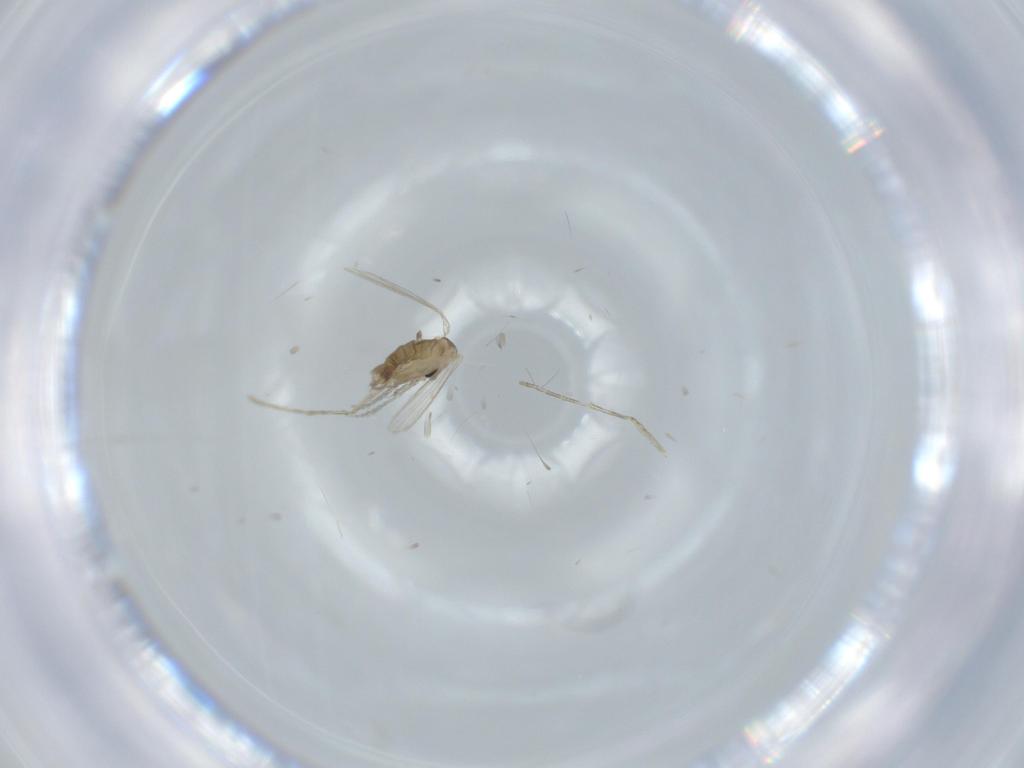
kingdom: Animalia
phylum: Arthropoda
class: Insecta
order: Diptera
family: Psychodidae
